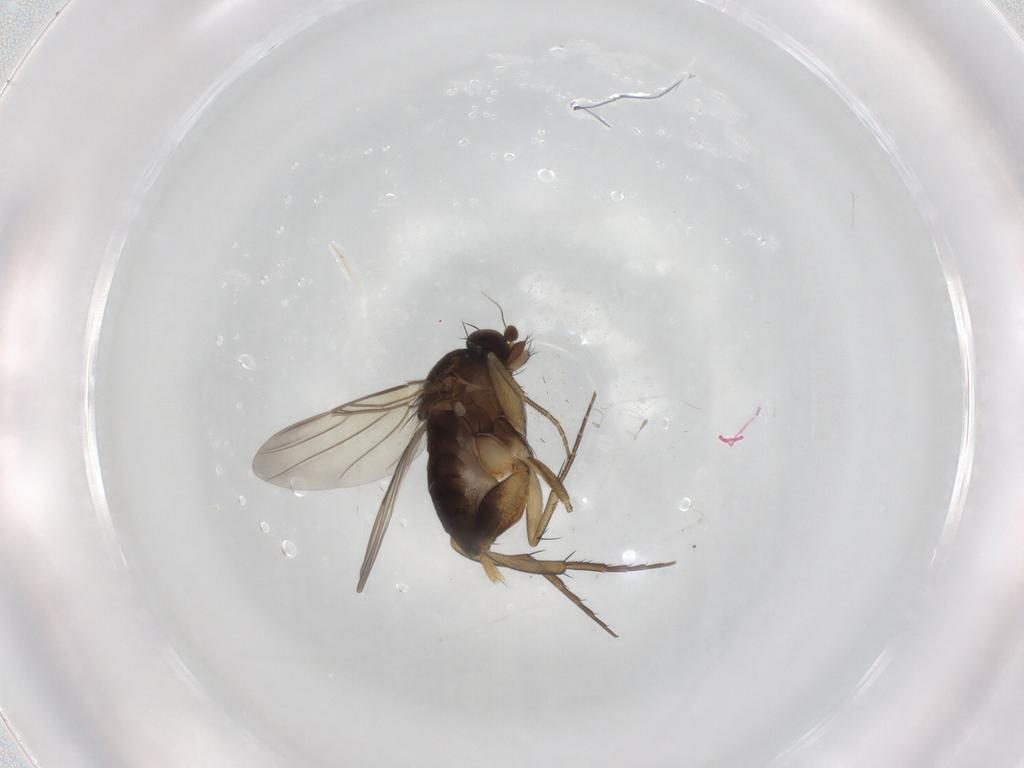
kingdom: Animalia
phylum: Arthropoda
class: Insecta
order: Diptera
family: Phoridae
